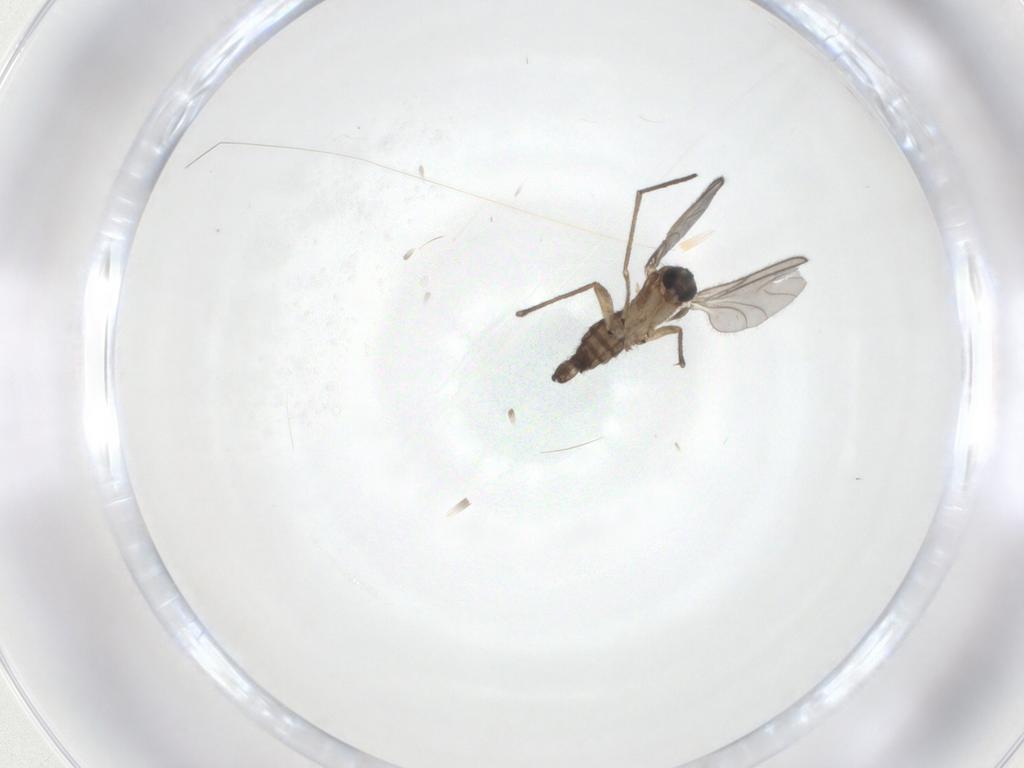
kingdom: Animalia
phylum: Arthropoda
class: Insecta
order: Diptera
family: Sciaridae
